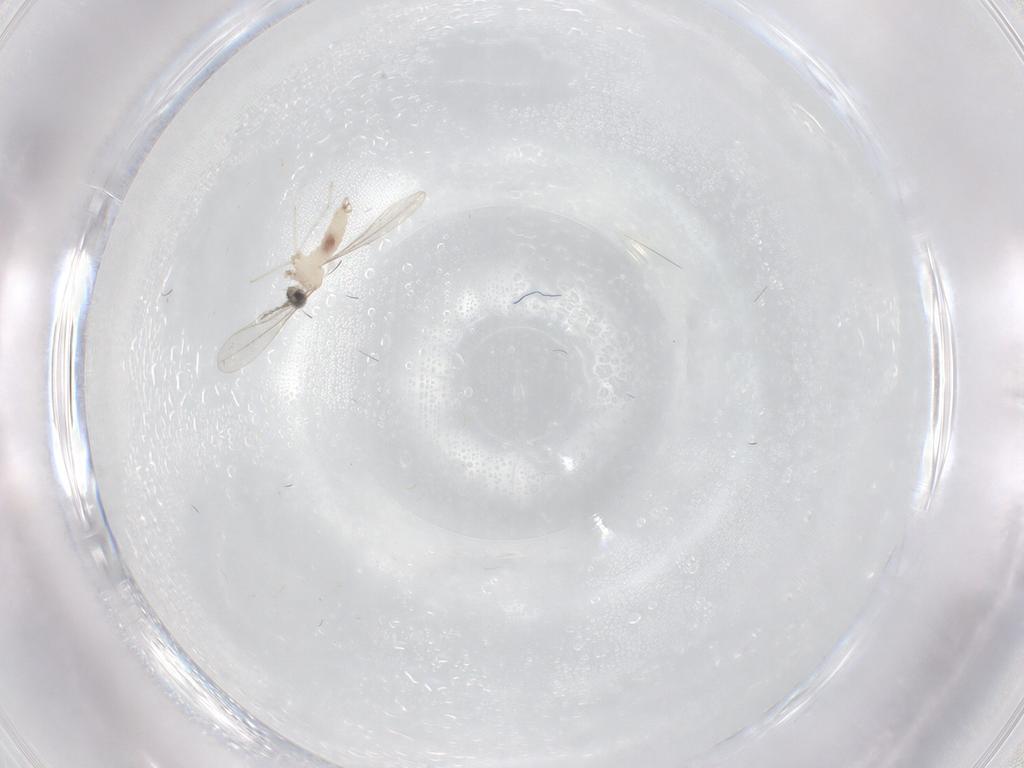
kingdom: Animalia
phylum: Arthropoda
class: Insecta
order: Diptera
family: Cecidomyiidae
